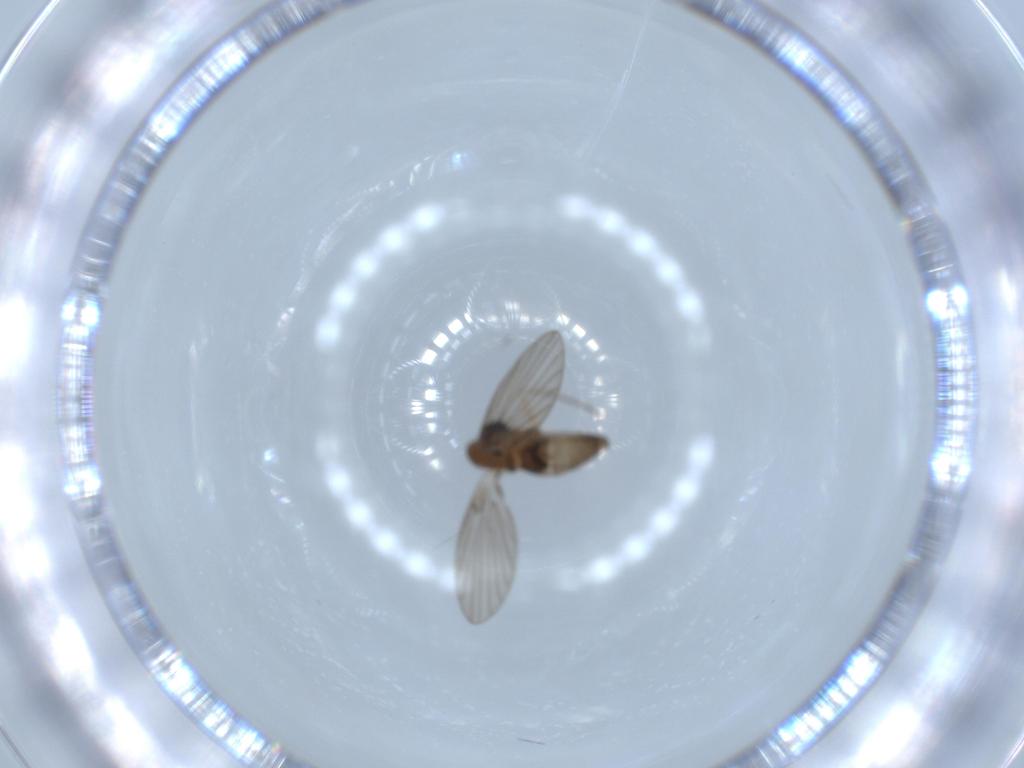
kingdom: Animalia
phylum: Arthropoda
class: Insecta
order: Diptera
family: Psychodidae
